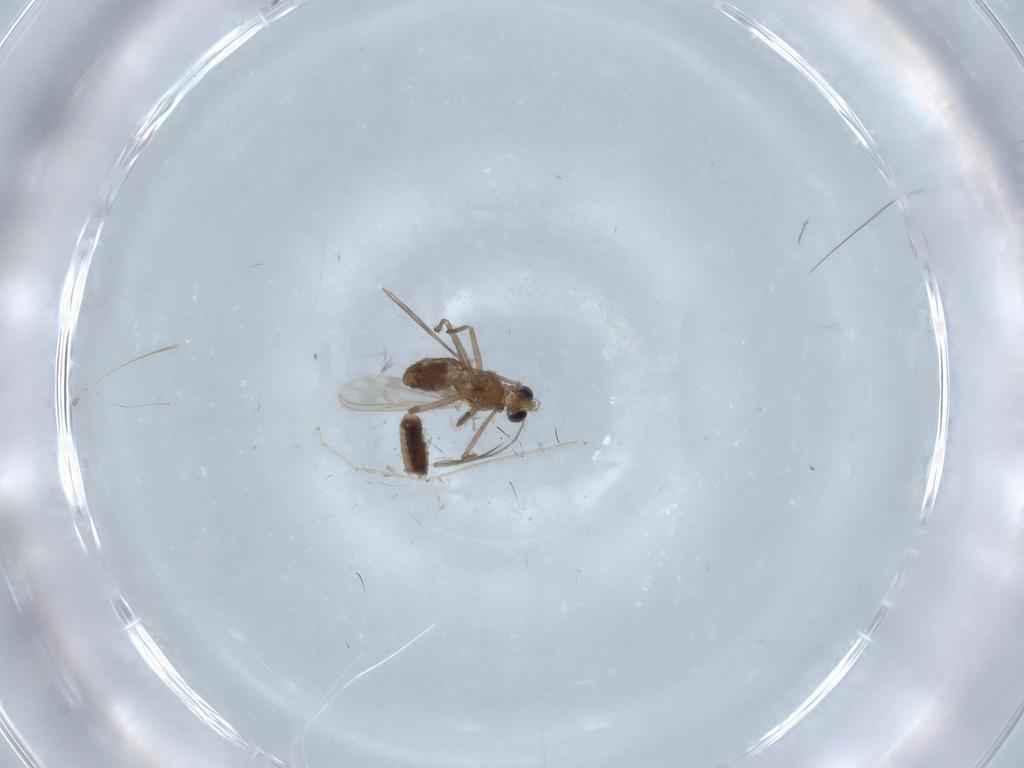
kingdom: Animalia
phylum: Arthropoda
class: Insecta
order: Diptera
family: Chironomidae
